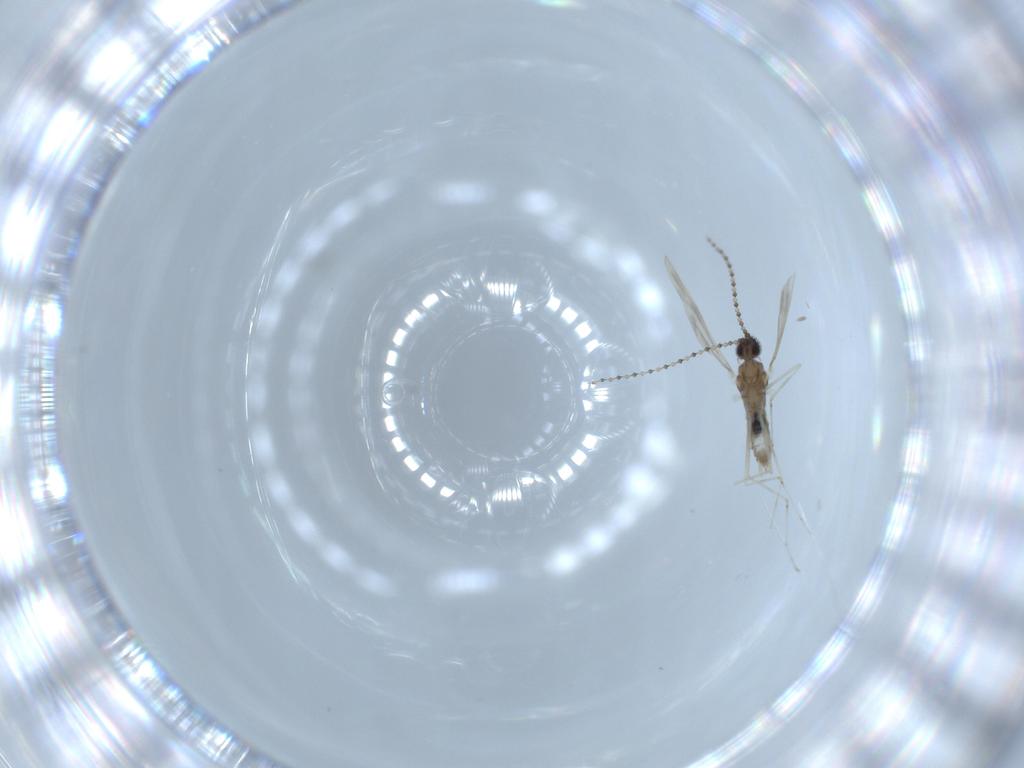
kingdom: Animalia
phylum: Arthropoda
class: Insecta
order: Diptera
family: Cecidomyiidae
